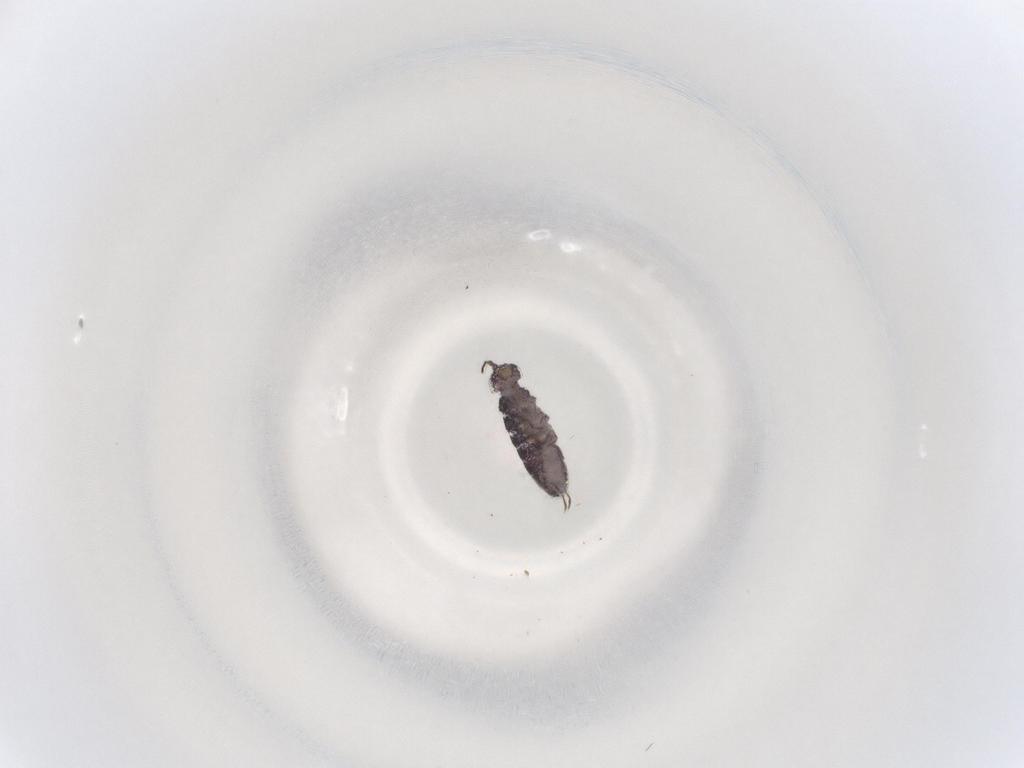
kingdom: Animalia
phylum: Arthropoda
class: Collembola
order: Entomobryomorpha
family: Isotomidae
